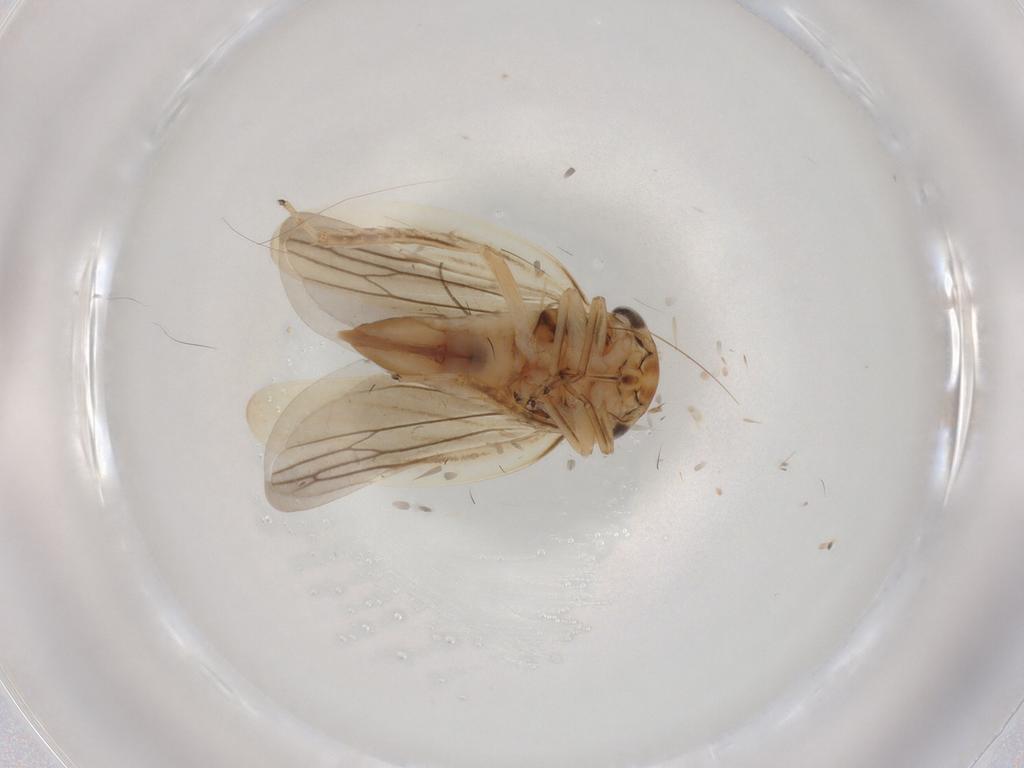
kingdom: Animalia
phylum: Arthropoda
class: Insecta
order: Hemiptera
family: Cicadellidae
